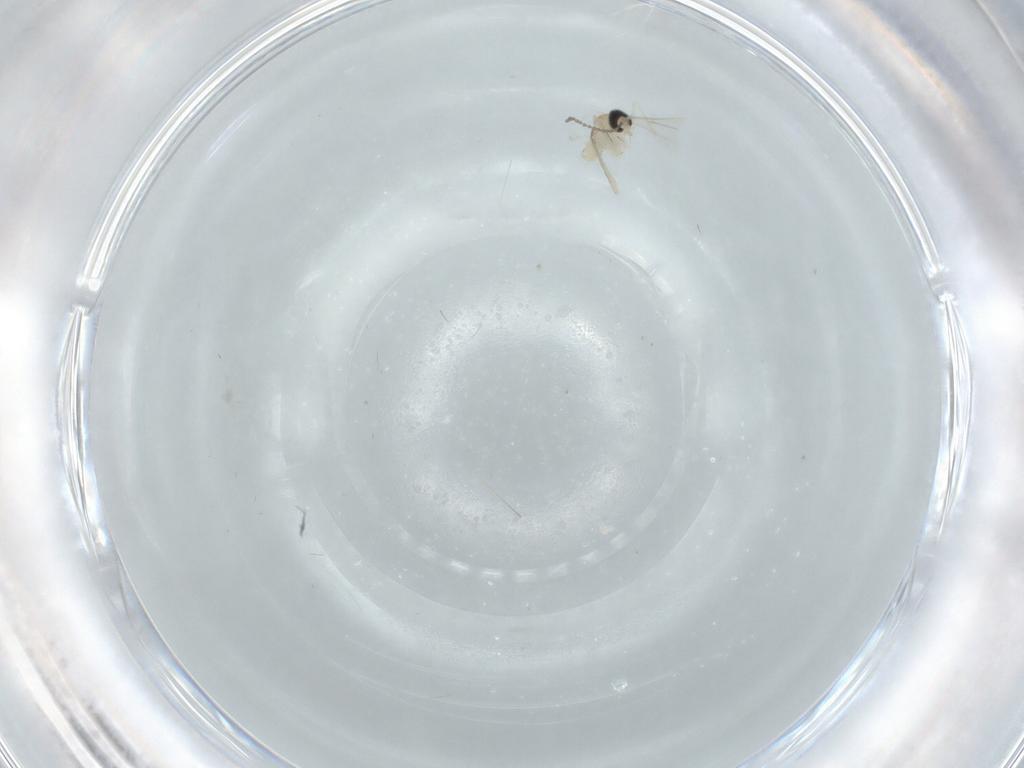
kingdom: Animalia
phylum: Arthropoda
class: Insecta
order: Diptera
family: Cecidomyiidae
